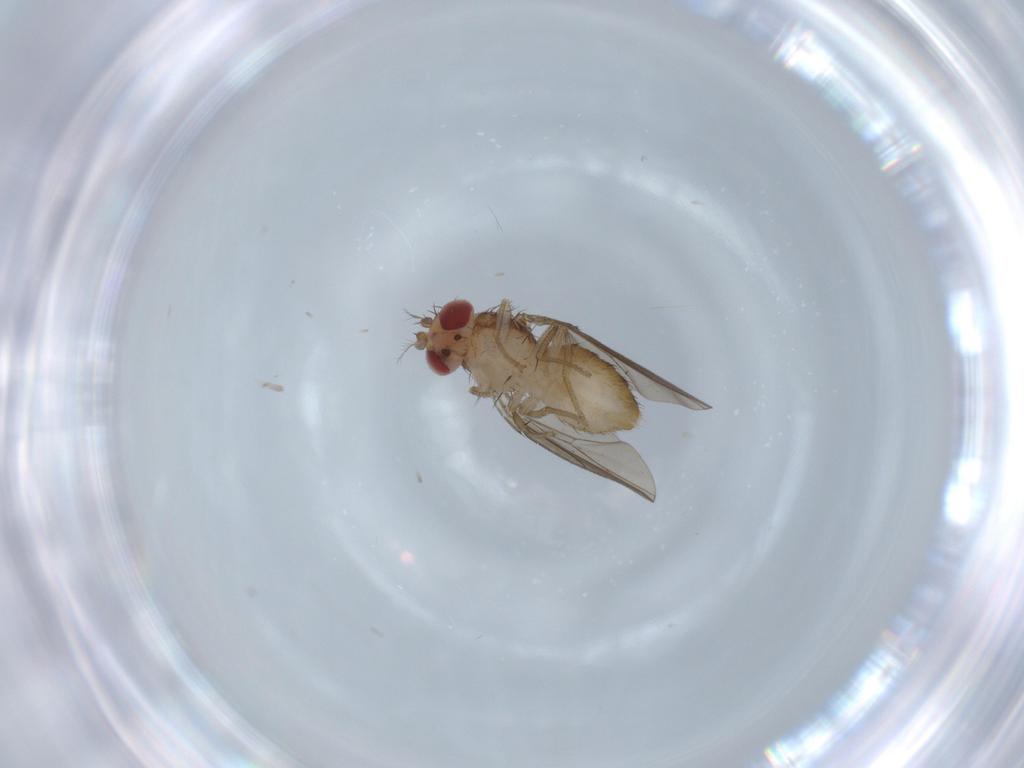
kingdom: Animalia
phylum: Arthropoda
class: Insecta
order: Diptera
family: Drosophilidae
